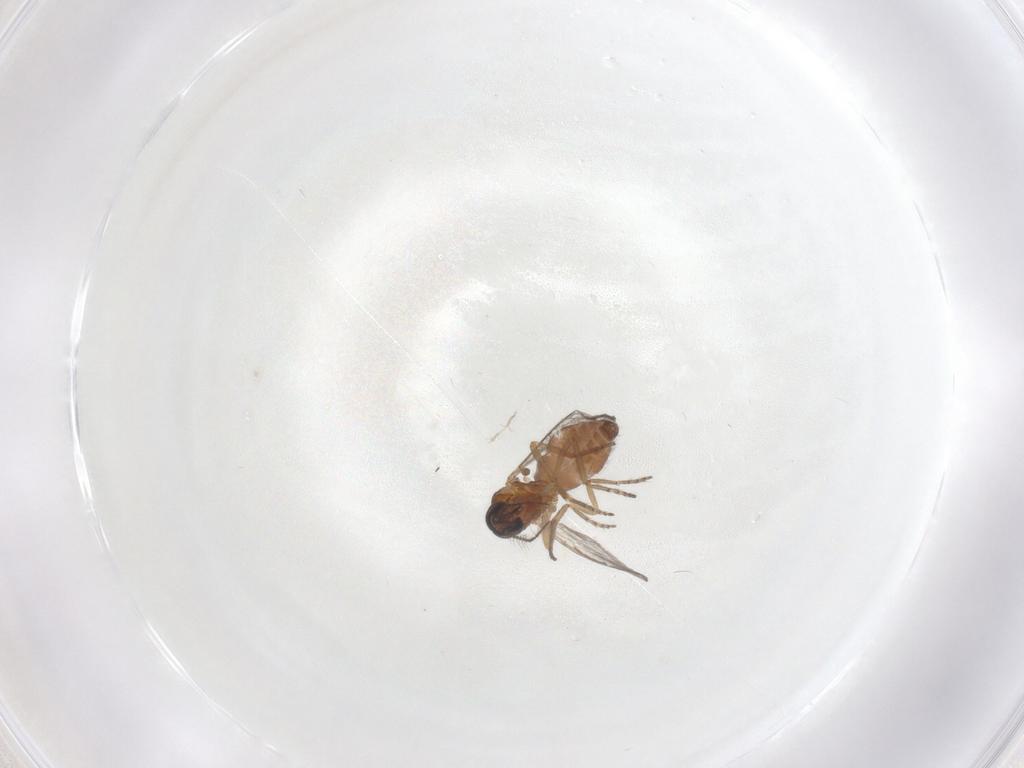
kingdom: Animalia
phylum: Arthropoda
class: Insecta
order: Diptera
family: Ceratopogonidae
